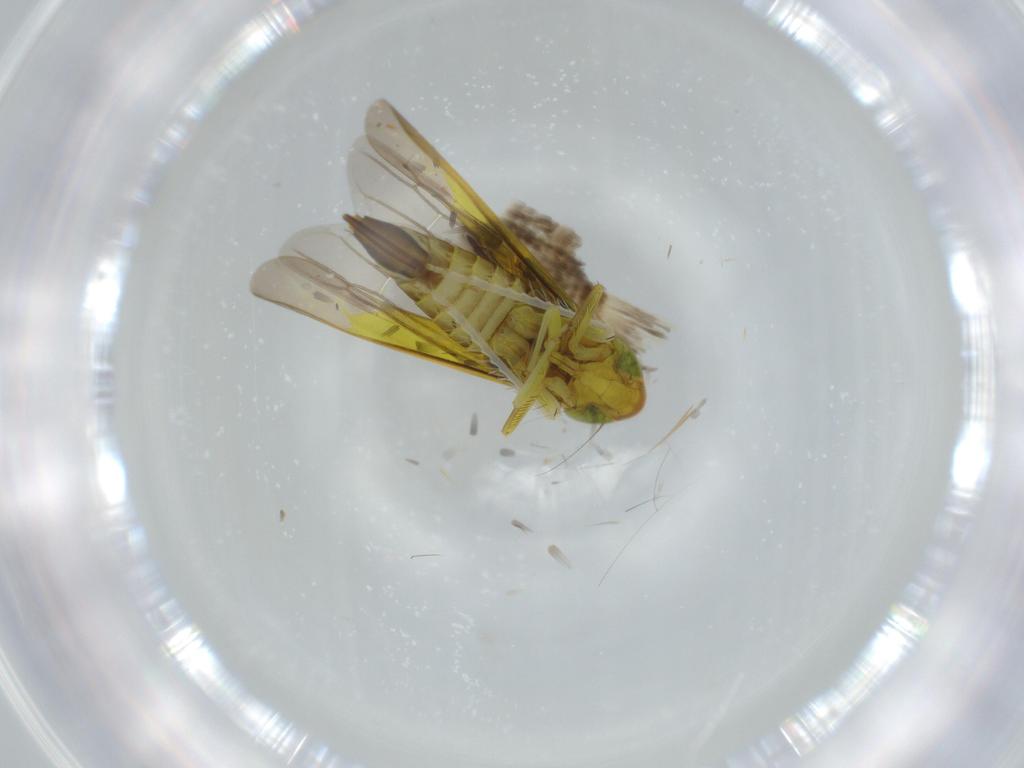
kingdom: Animalia
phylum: Arthropoda
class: Insecta
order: Hemiptera
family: Cicadellidae
